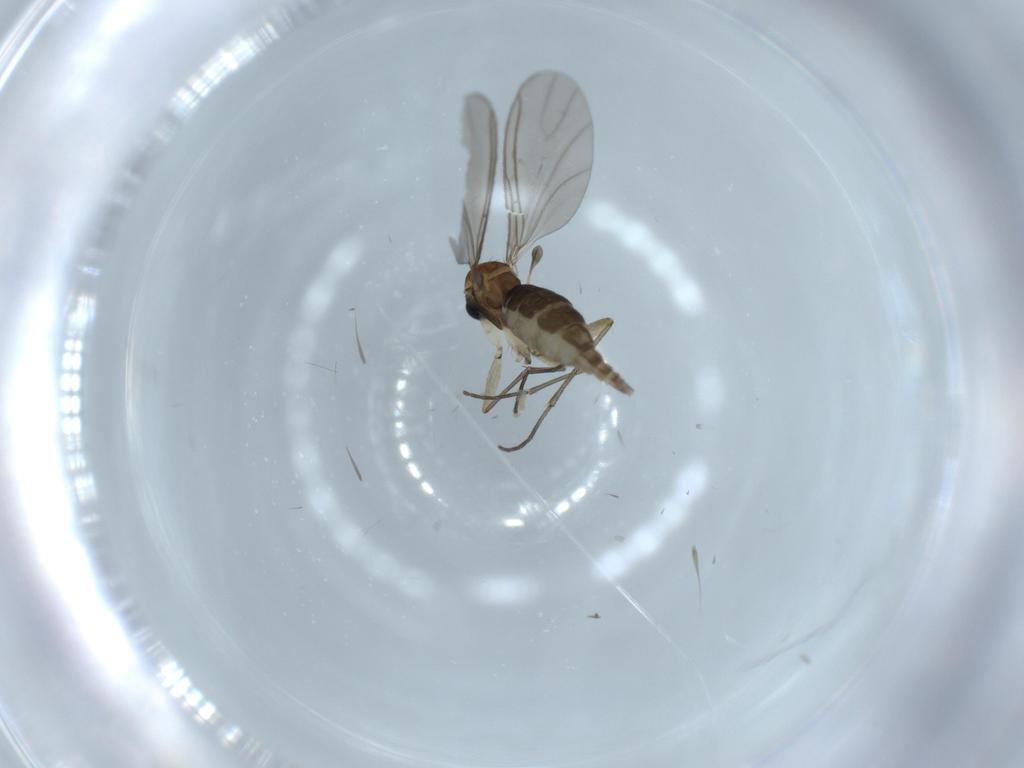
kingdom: Animalia
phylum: Arthropoda
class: Insecta
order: Diptera
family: Sciaridae
